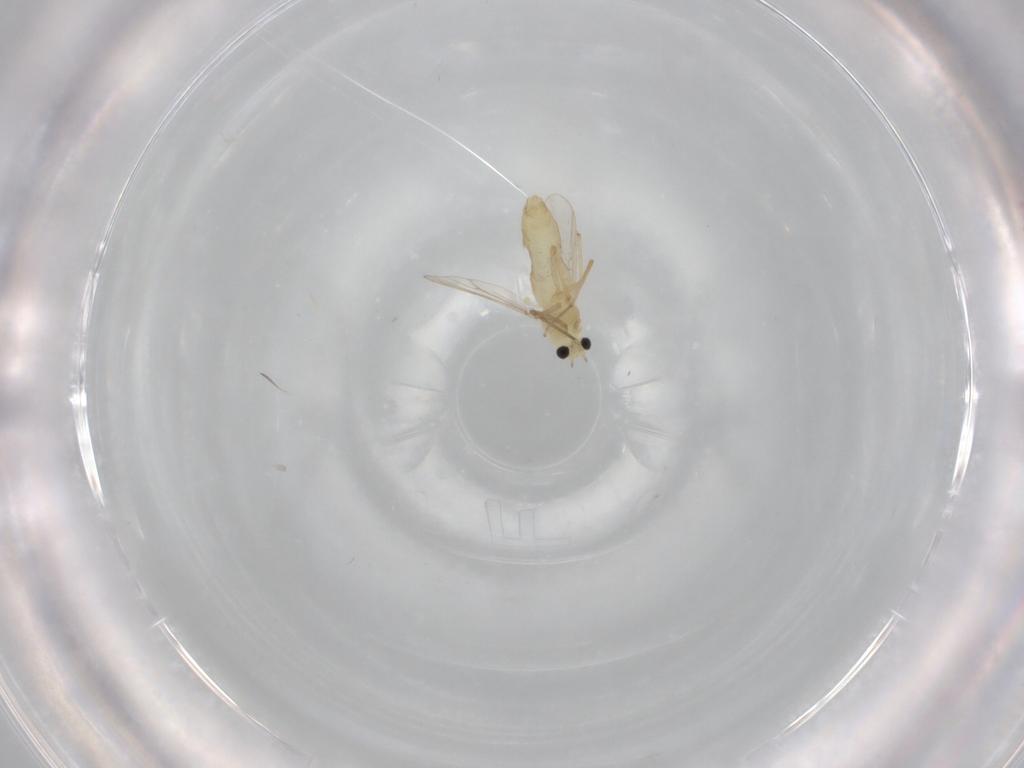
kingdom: Animalia
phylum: Arthropoda
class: Insecta
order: Diptera
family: Chironomidae
